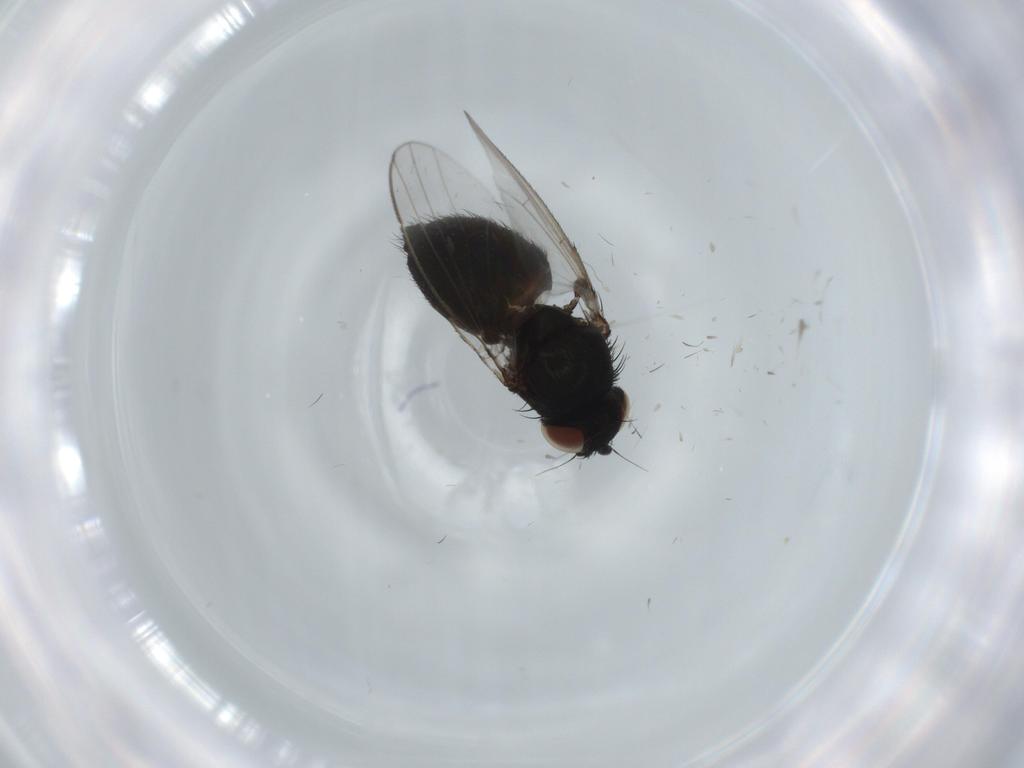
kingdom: Animalia
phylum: Arthropoda
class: Insecta
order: Diptera
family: Milichiidae
